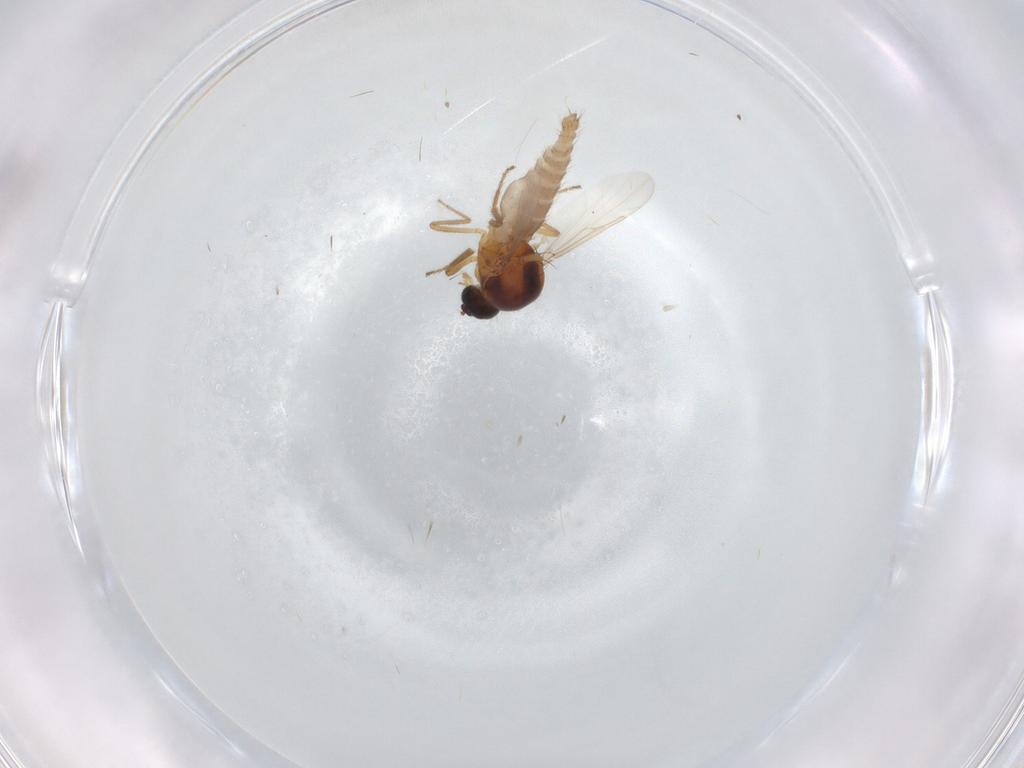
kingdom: Animalia
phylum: Arthropoda
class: Insecta
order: Diptera
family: Ceratopogonidae
